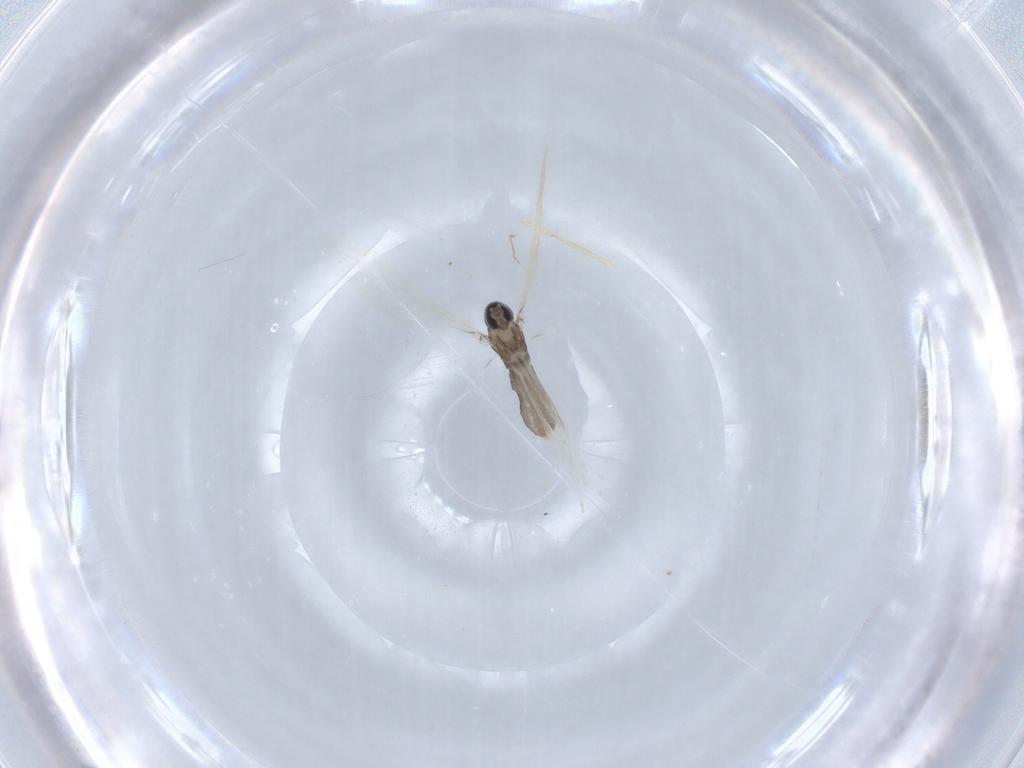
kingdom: Animalia
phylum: Arthropoda
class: Insecta
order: Diptera
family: Cecidomyiidae
